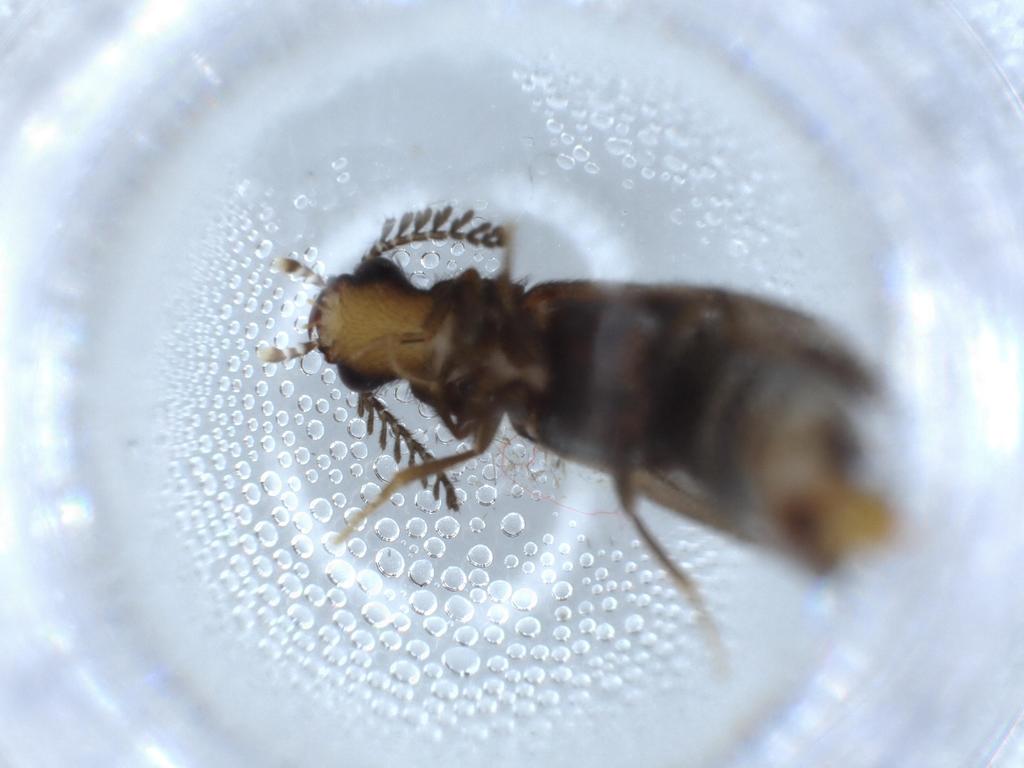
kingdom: Animalia
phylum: Arthropoda
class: Insecta
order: Coleoptera
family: Phengodidae
